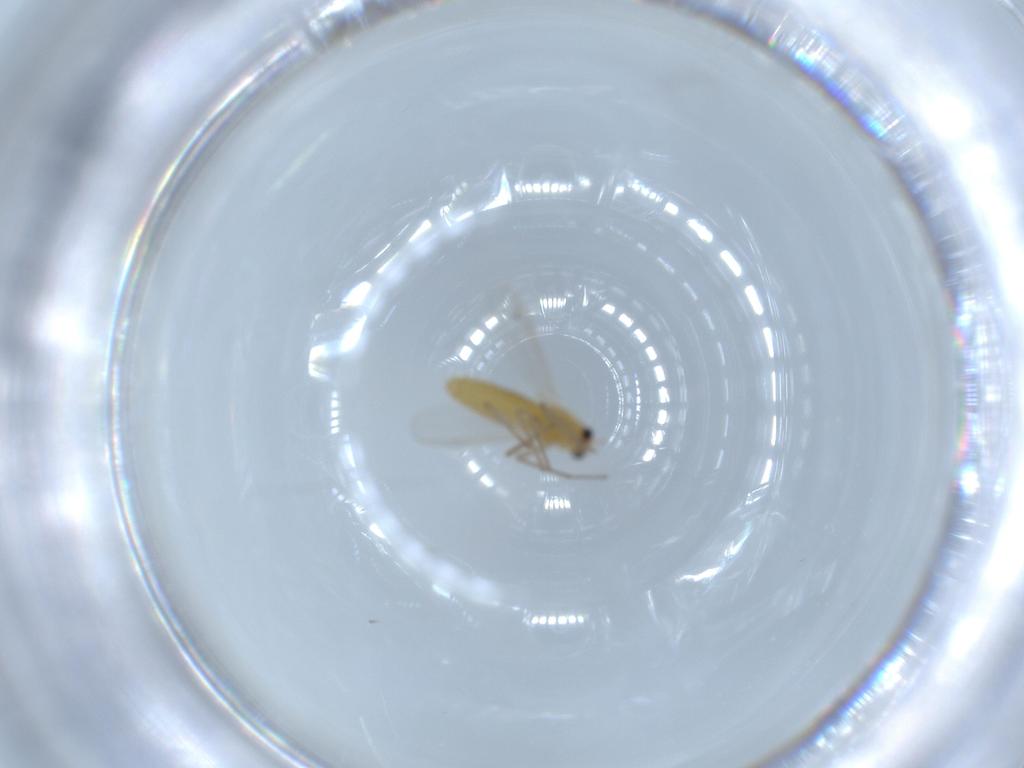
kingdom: Animalia
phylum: Arthropoda
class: Insecta
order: Diptera
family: Chironomidae
